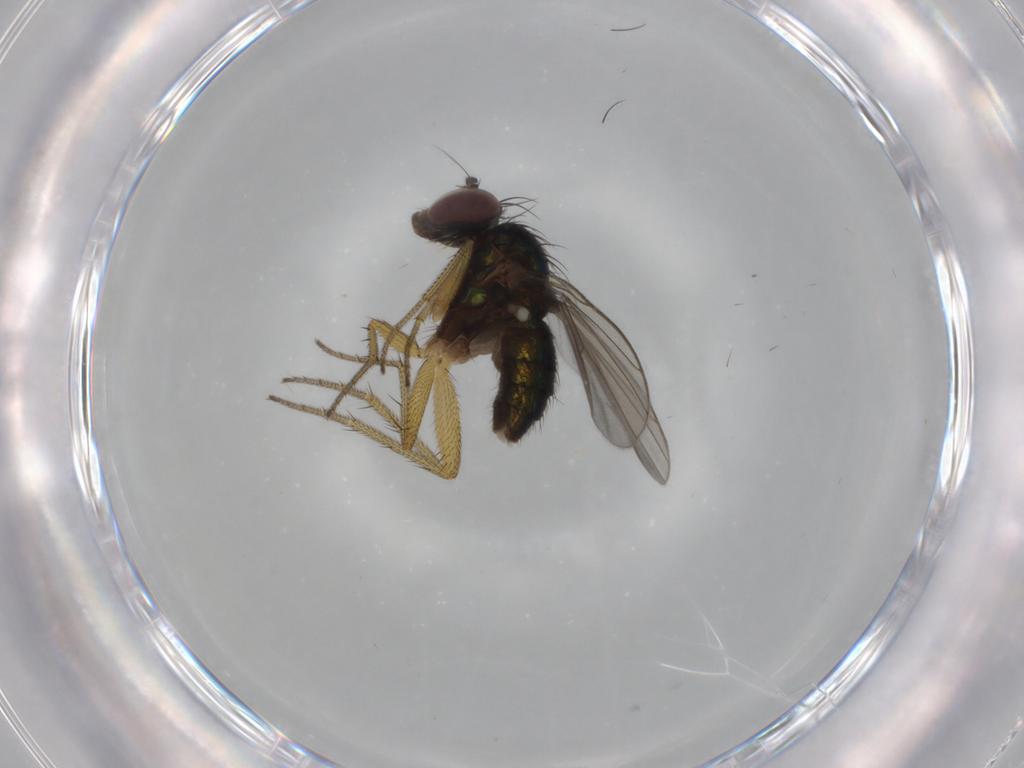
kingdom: Animalia
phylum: Arthropoda
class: Insecta
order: Diptera
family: Dolichopodidae
